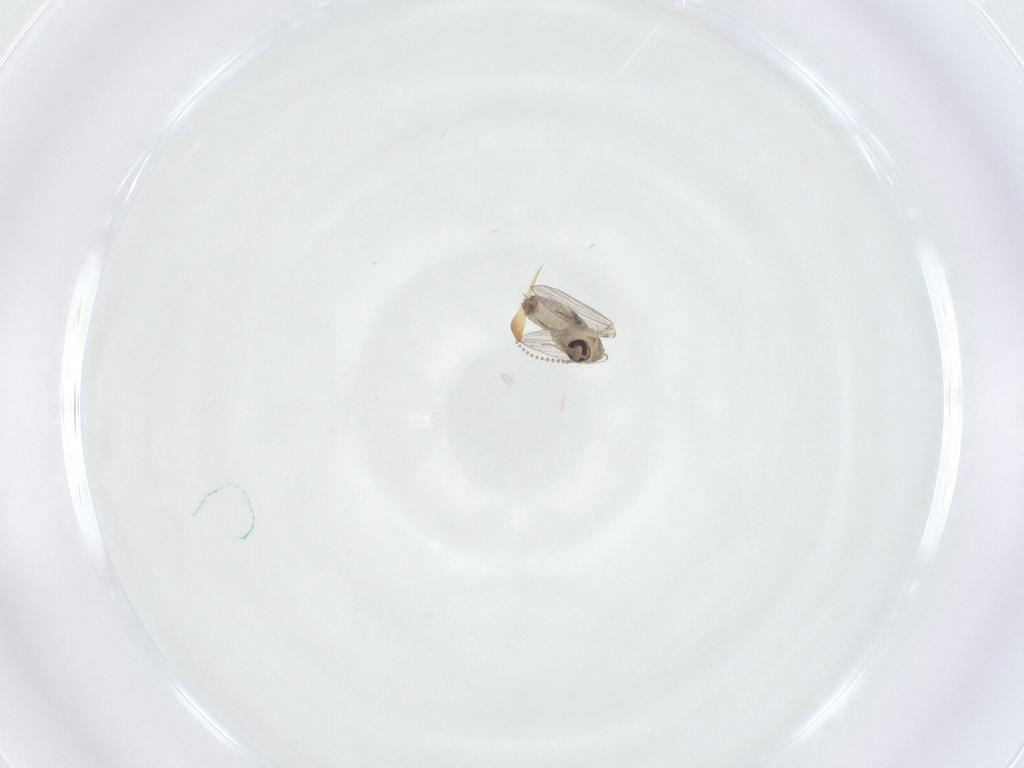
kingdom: Animalia
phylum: Arthropoda
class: Insecta
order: Diptera
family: Psychodidae
